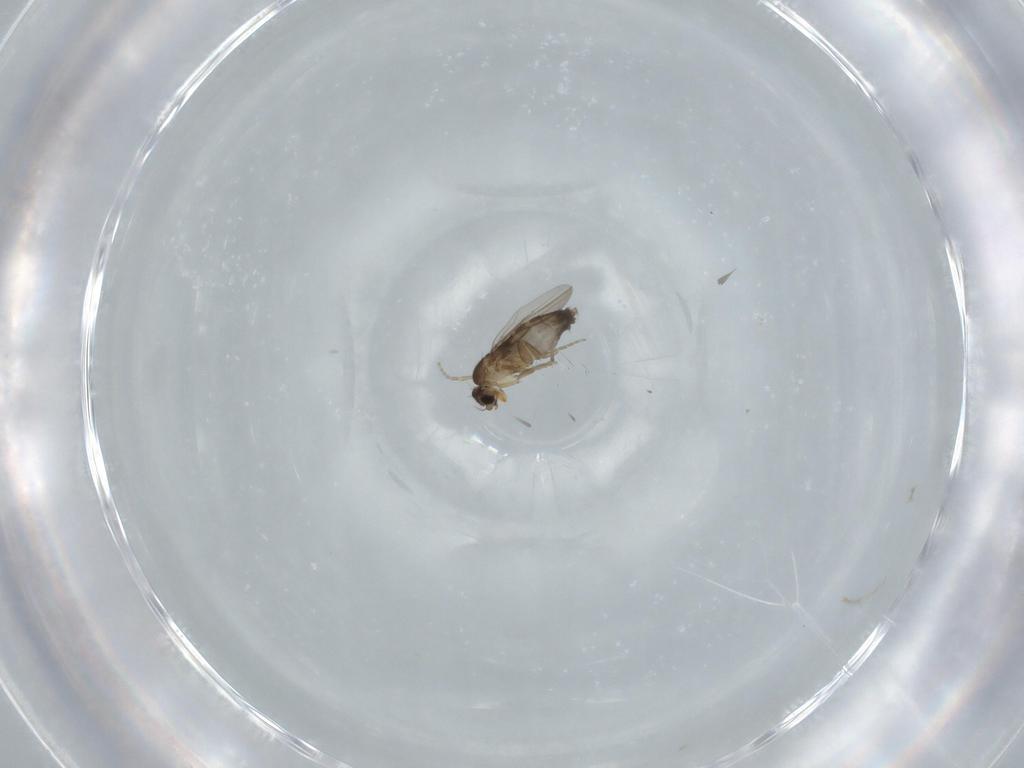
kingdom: Animalia
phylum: Arthropoda
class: Insecta
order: Diptera
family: Phoridae
